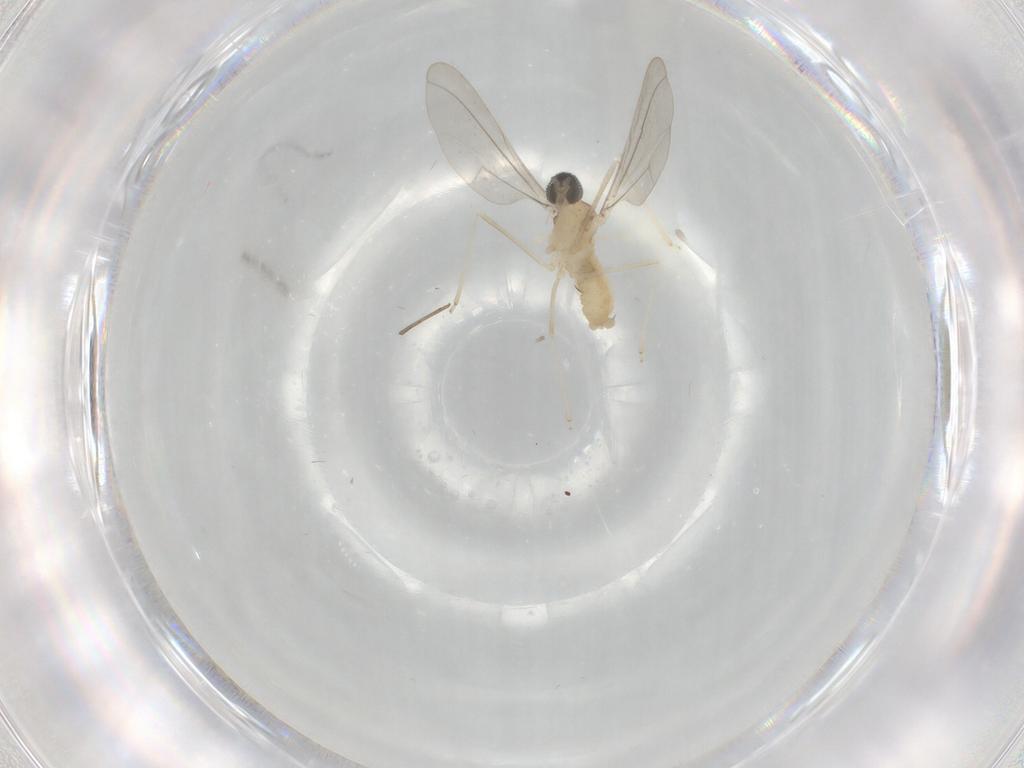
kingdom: Animalia
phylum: Arthropoda
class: Insecta
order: Diptera
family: Cecidomyiidae
